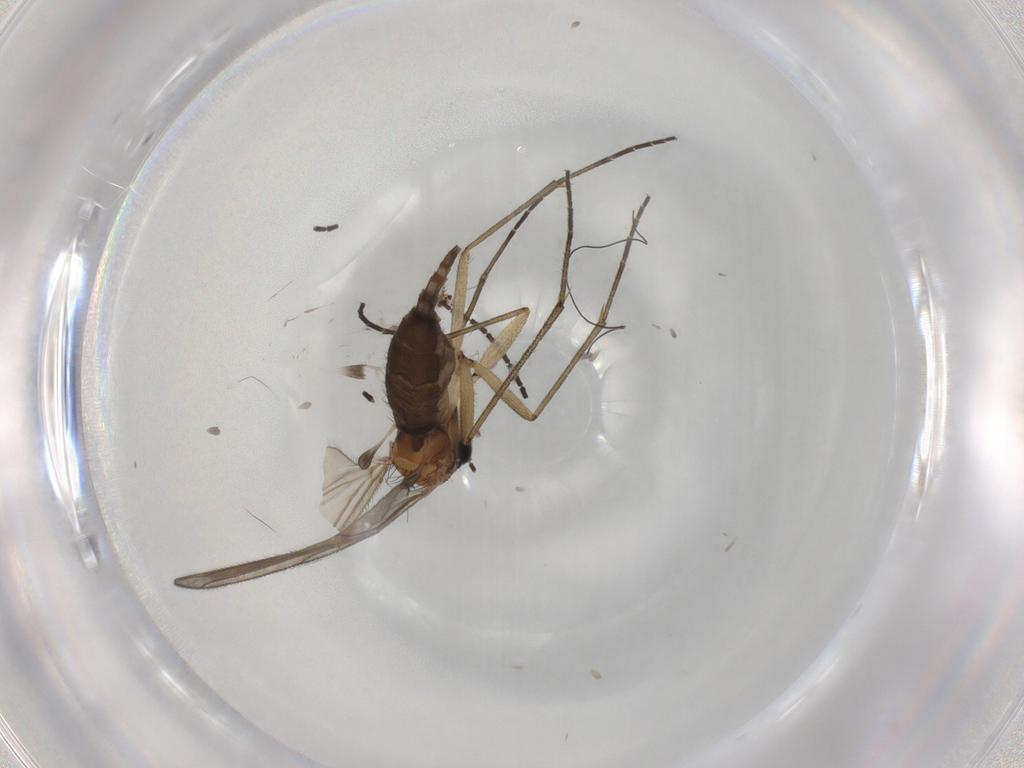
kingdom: Animalia
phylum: Arthropoda
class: Insecta
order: Diptera
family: Sciaridae
